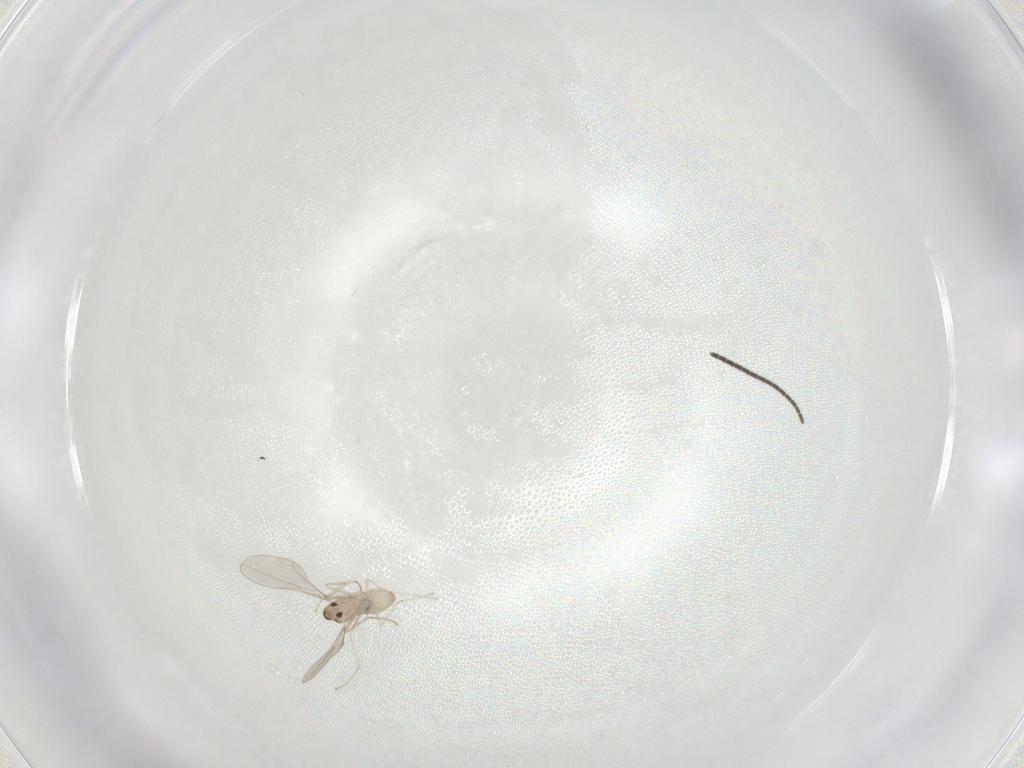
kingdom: Animalia
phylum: Arthropoda
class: Insecta
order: Diptera
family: Cecidomyiidae
